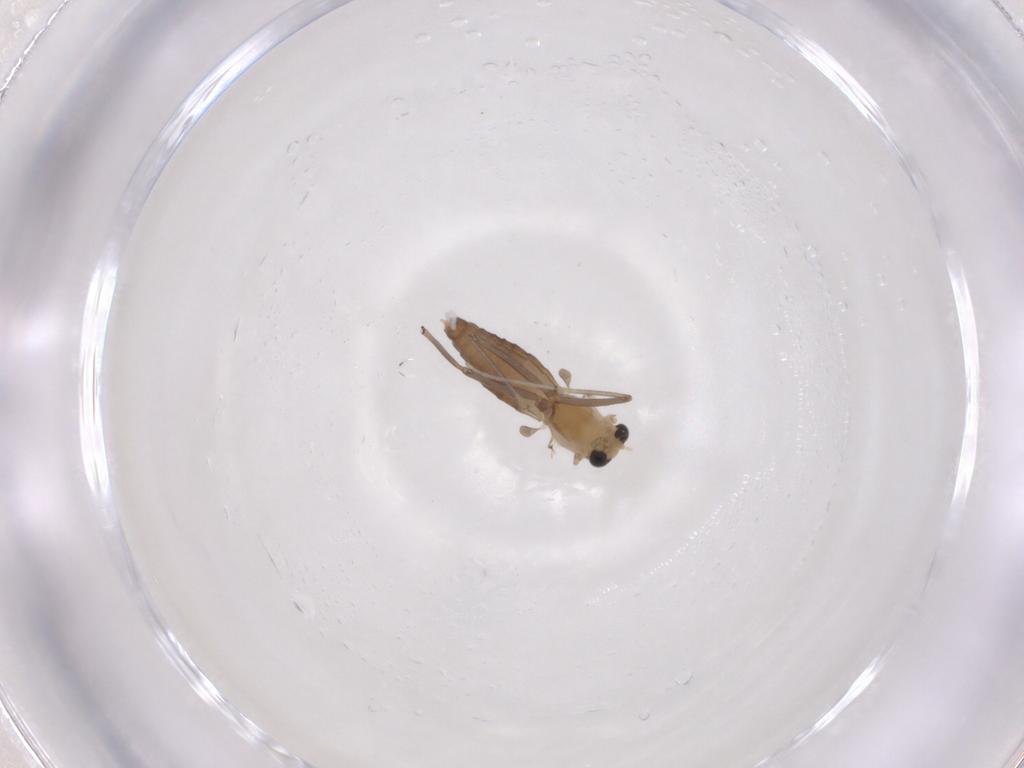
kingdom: Animalia
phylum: Arthropoda
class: Insecta
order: Diptera
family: Chironomidae
